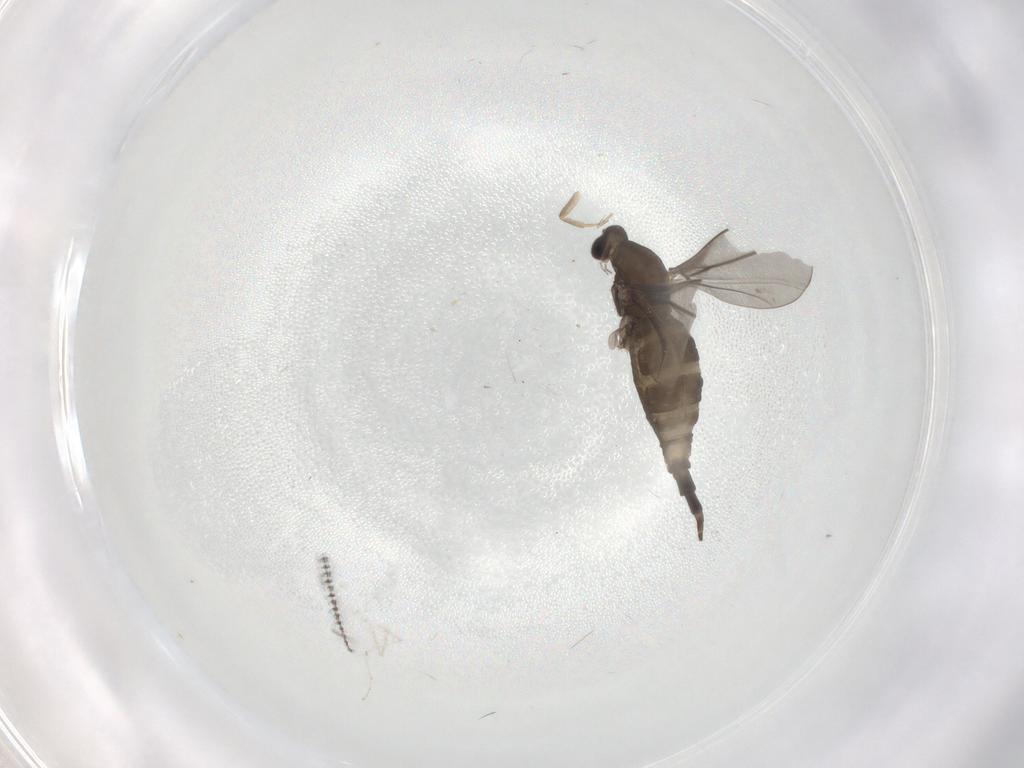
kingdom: Animalia
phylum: Arthropoda
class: Insecta
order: Diptera
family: Cecidomyiidae
